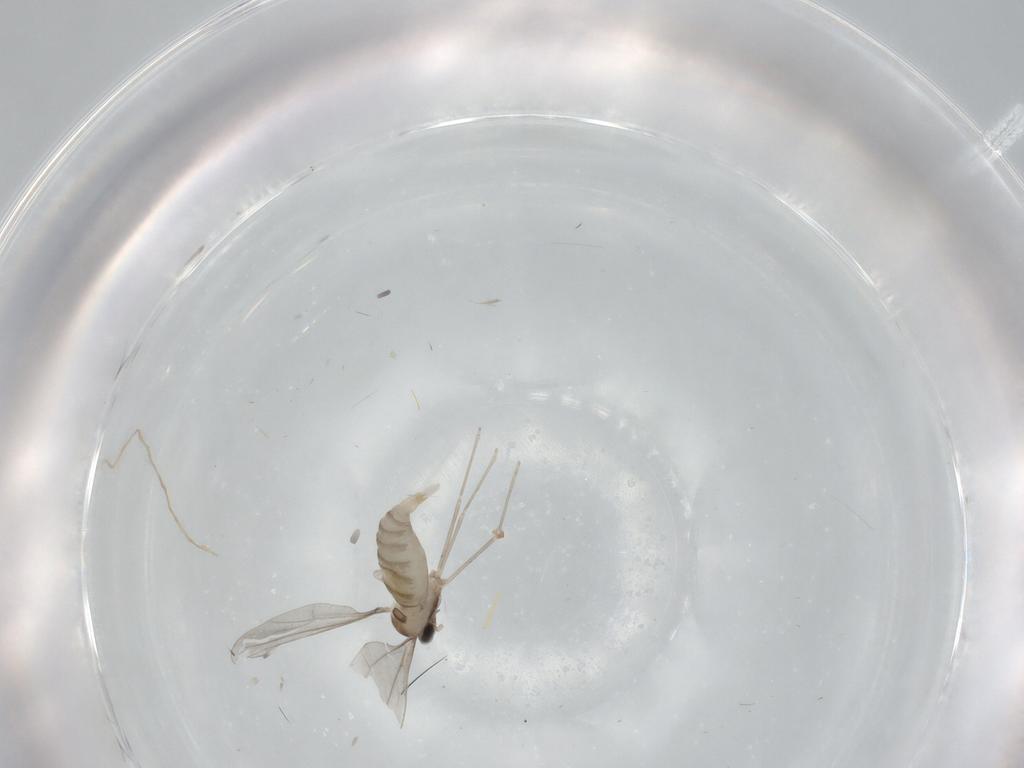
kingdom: Animalia
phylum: Arthropoda
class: Insecta
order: Diptera
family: Cecidomyiidae
